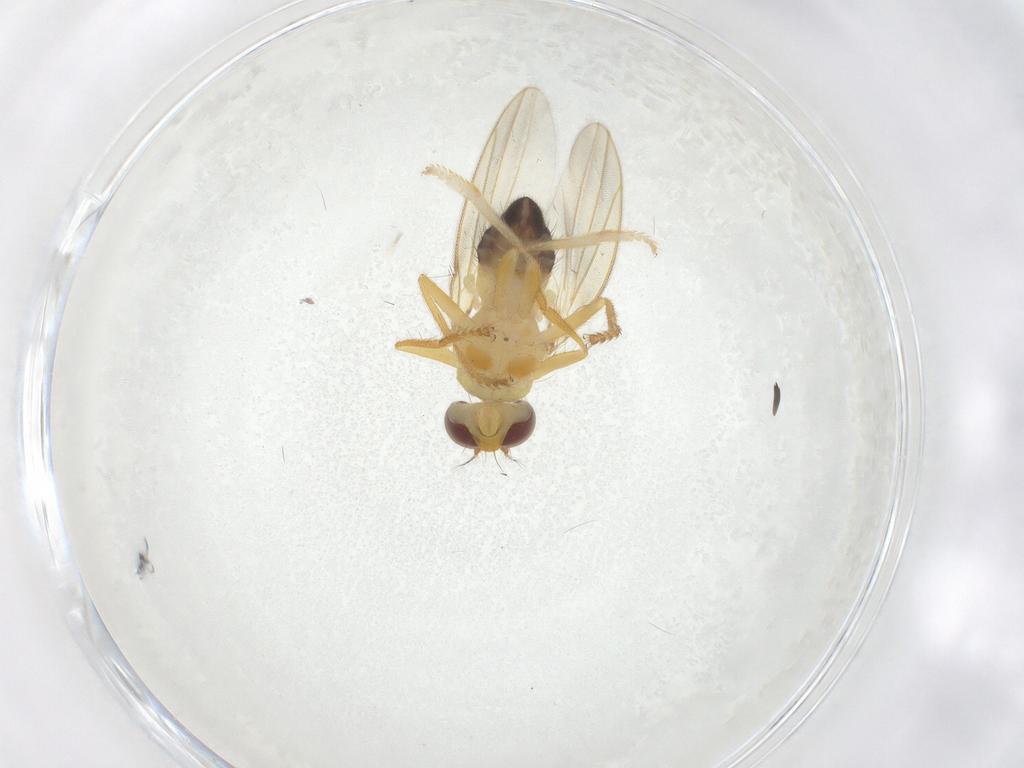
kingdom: Animalia
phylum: Arthropoda
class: Insecta
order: Diptera
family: Periscelididae
